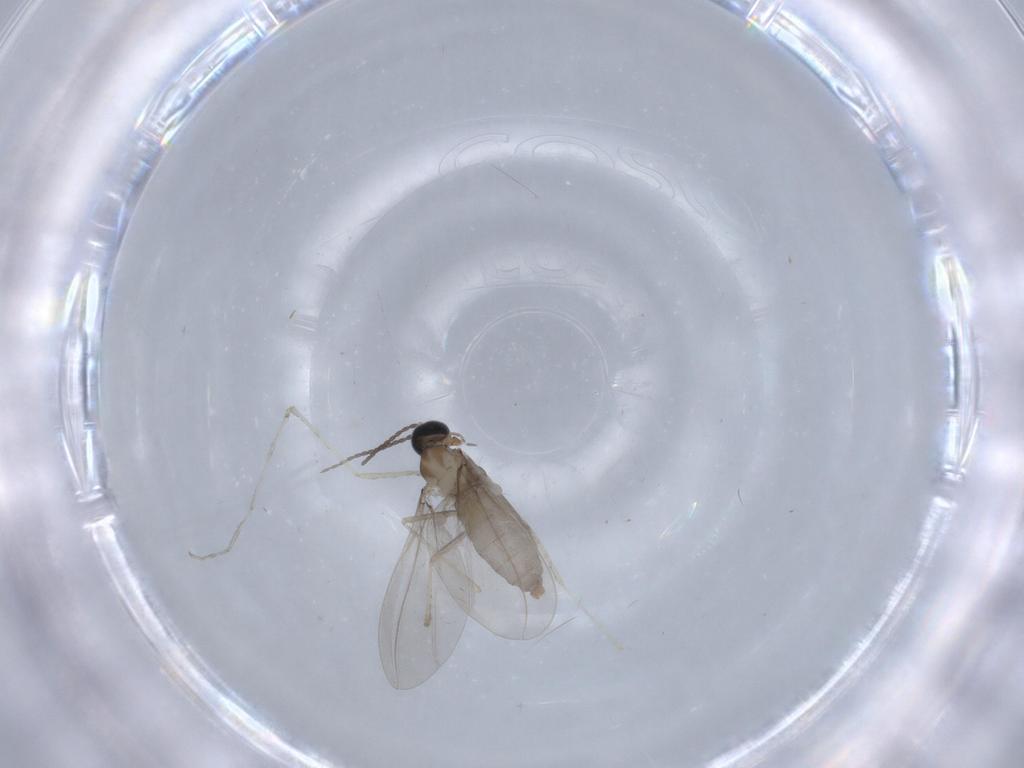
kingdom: Animalia
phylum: Arthropoda
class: Insecta
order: Diptera
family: Cecidomyiidae
